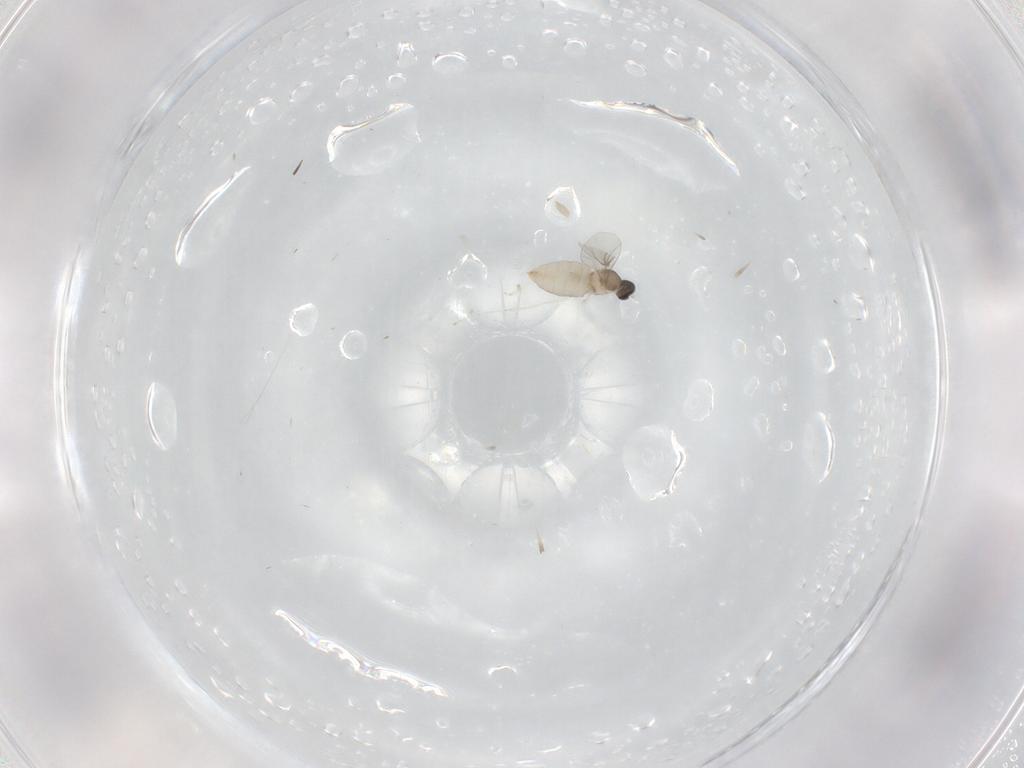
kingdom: Animalia
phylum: Arthropoda
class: Insecta
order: Diptera
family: Cecidomyiidae
